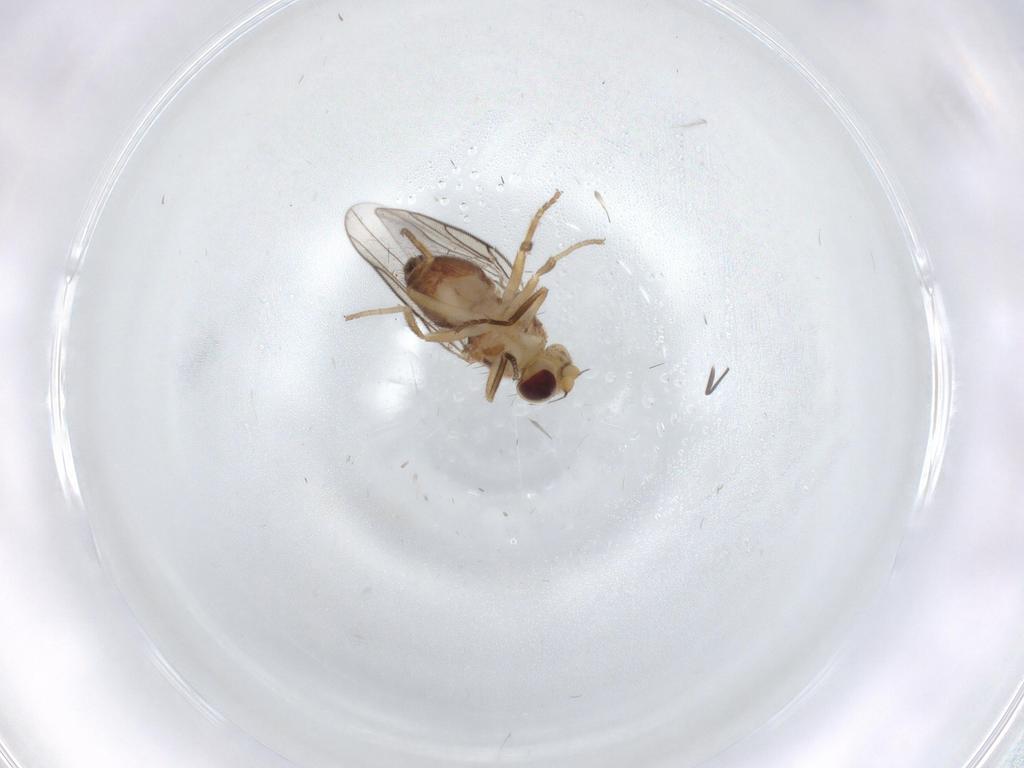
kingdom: Animalia
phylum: Arthropoda
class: Insecta
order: Diptera
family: Chloropidae
